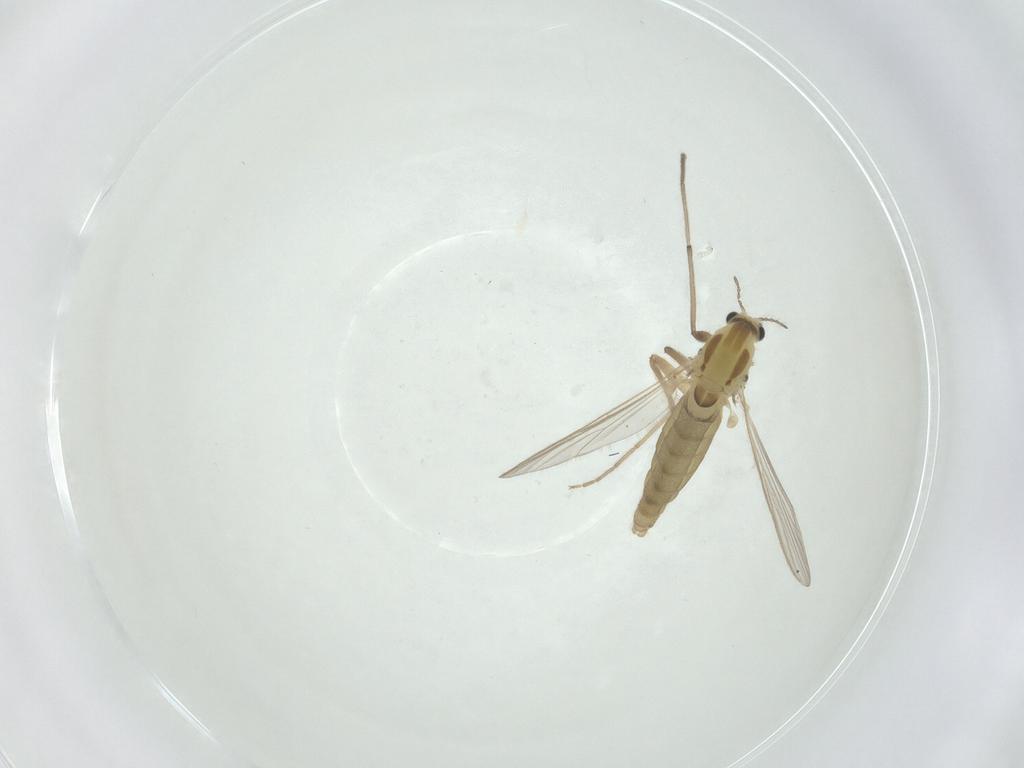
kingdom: Animalia
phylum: Arthropoda
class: Insecta
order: Diptera
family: Chironomidae
